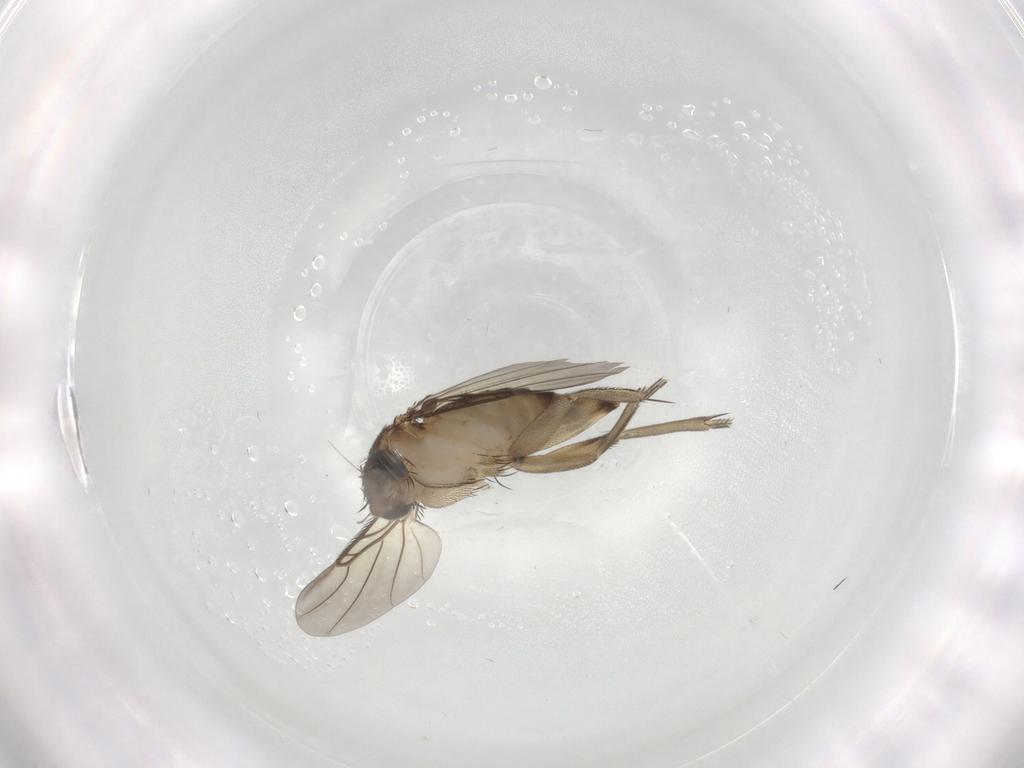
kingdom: Animalia
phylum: Arthropoda
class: Insecta
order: Diptera
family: Phoridae
